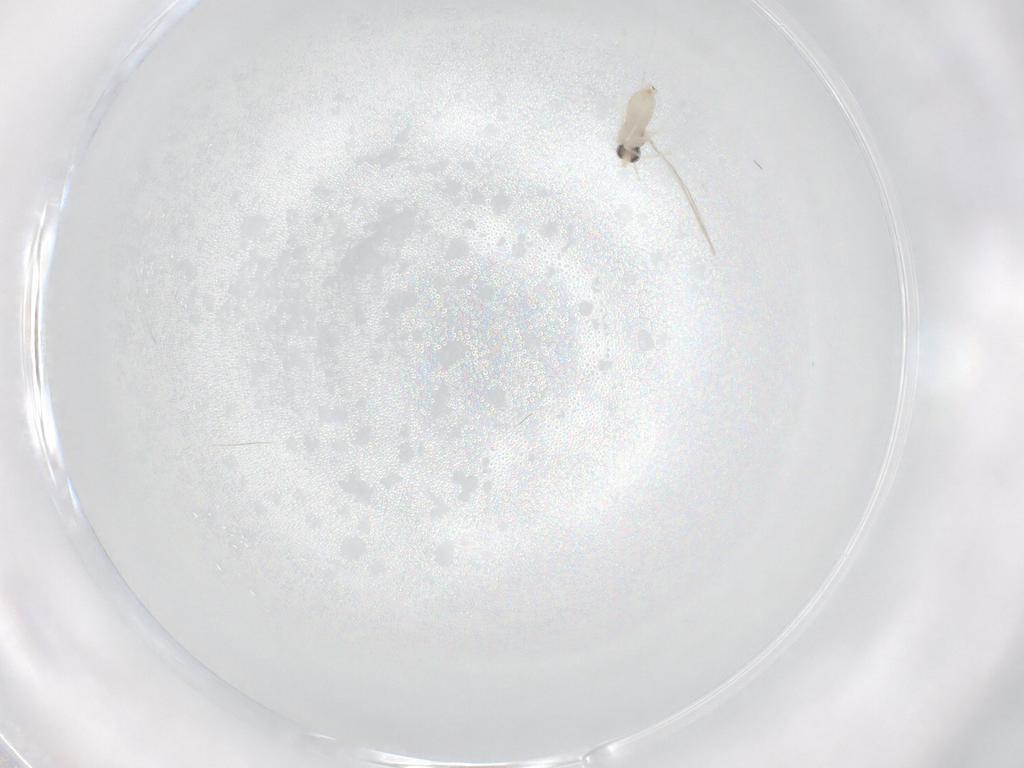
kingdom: Animalia
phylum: Arthropoda
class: Insecta
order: Diptera
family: Cecidomyiidae
